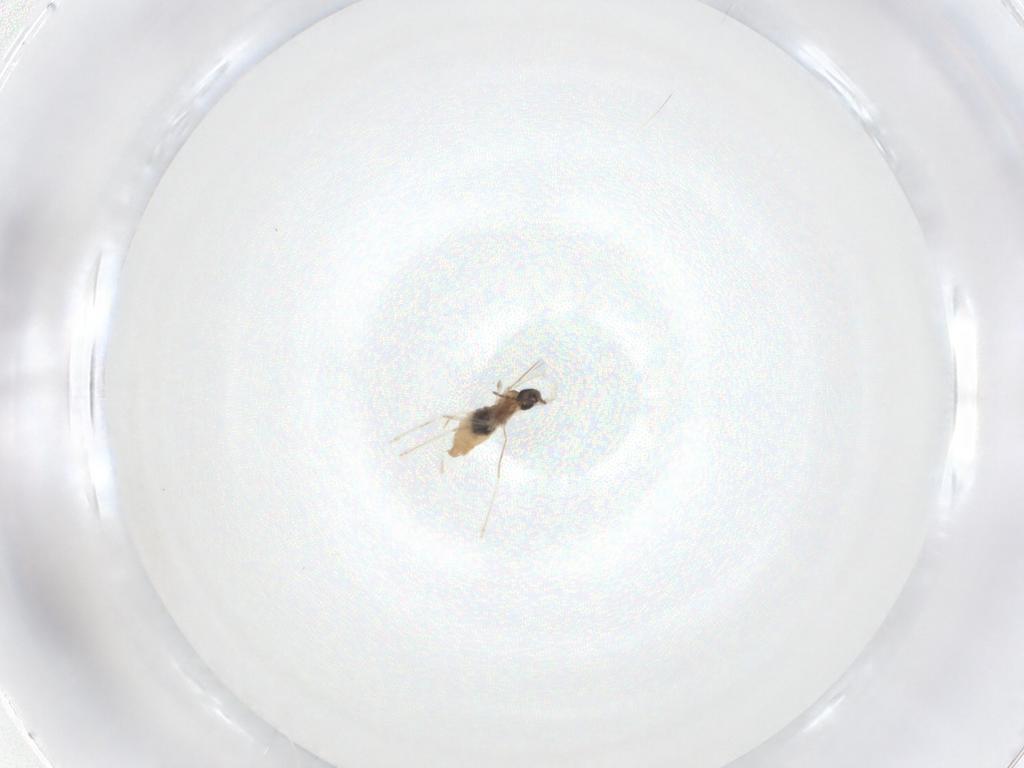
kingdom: Animalia
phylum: Arthropoda
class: Insecta
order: Diptera
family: Cecidomyiidae
